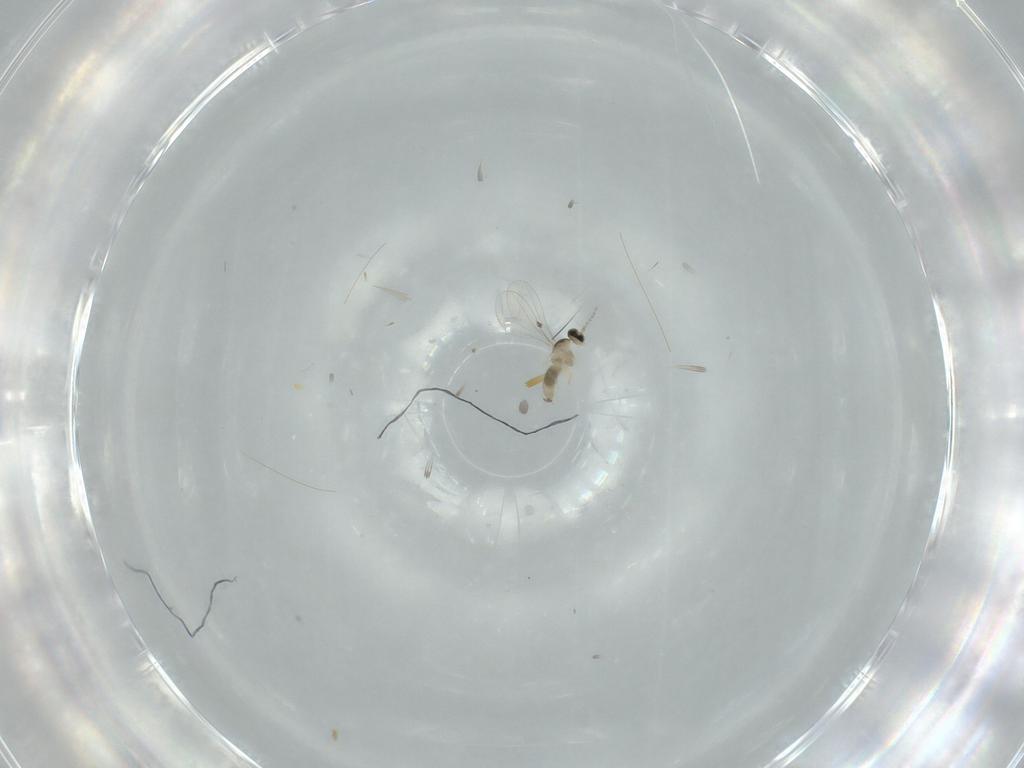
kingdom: Animalia
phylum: Arthropoda
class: Insecta
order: Diptera
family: Cecidomyiidae
